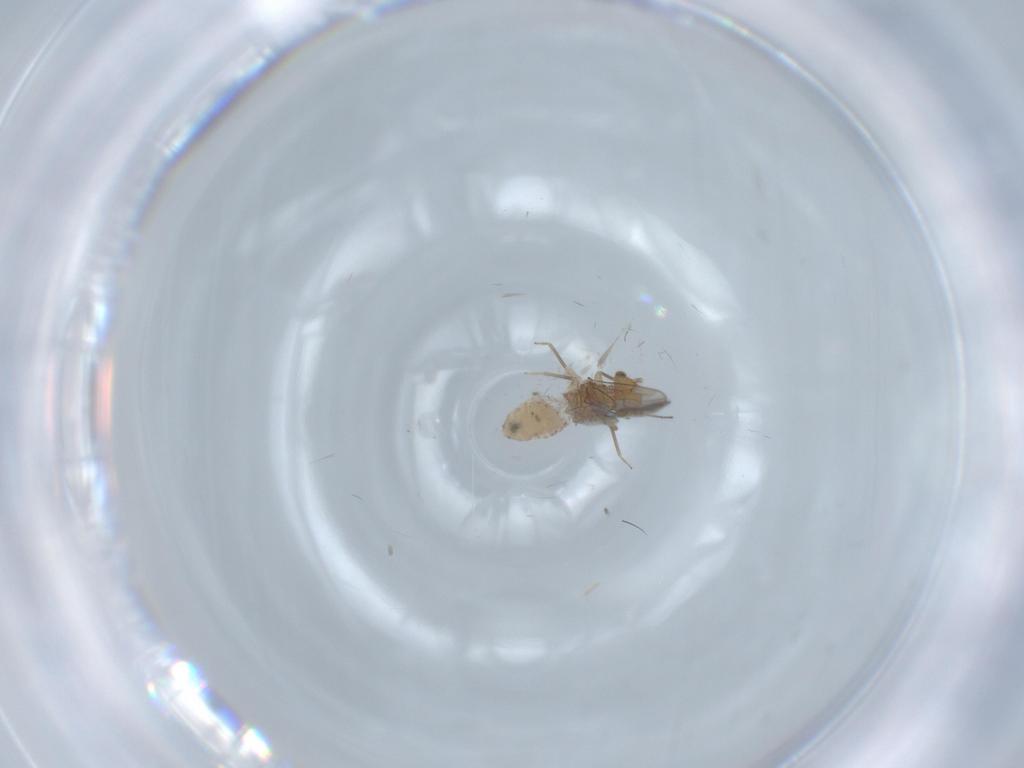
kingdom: Animalia
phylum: Arthropoda
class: Insecta
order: Psocodea
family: Ectopsocidae
